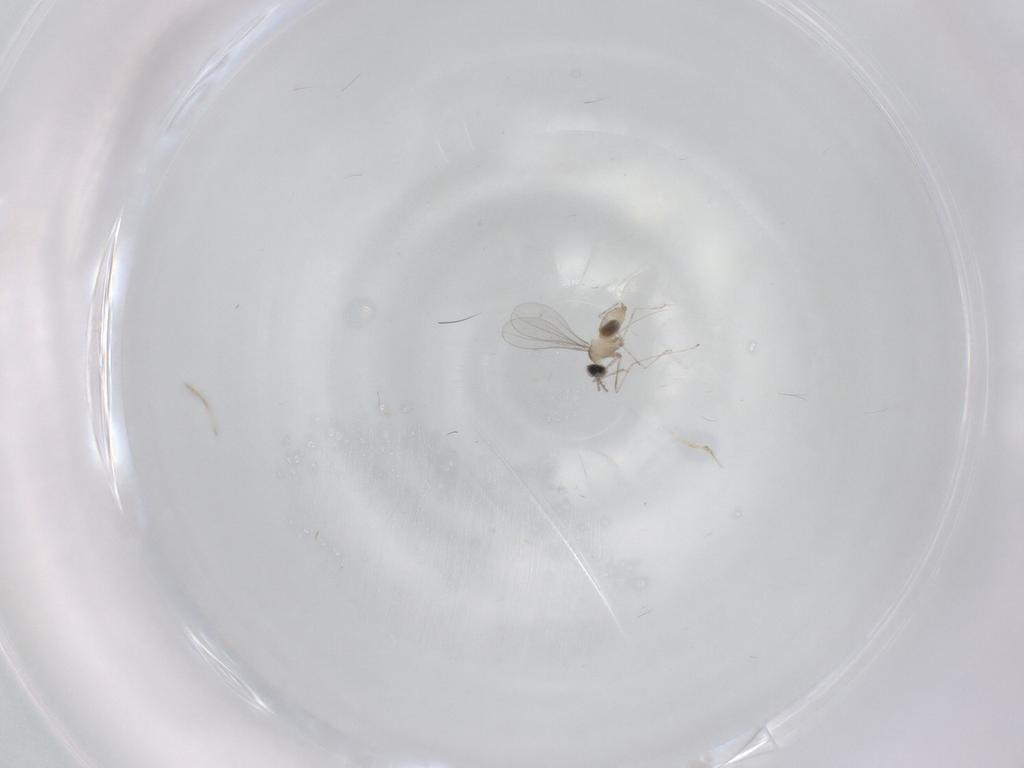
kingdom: Animalia
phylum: Arthropoda
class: Insecta
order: Diptera
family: Cecidomyiidae
